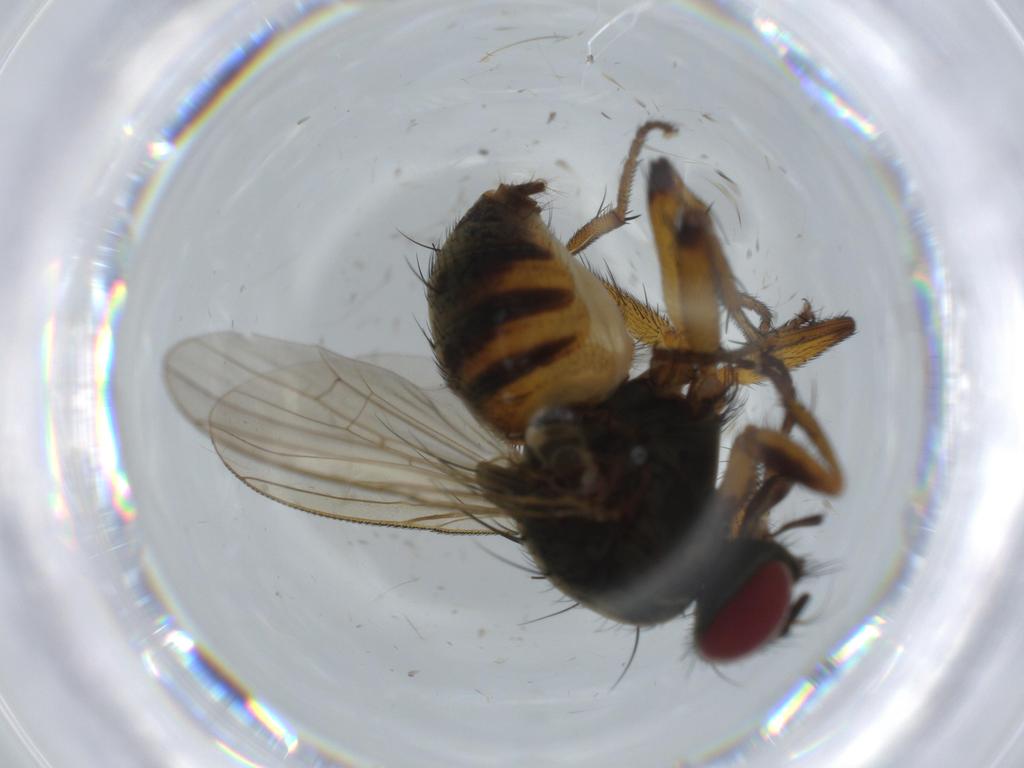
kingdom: Animalia
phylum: Arthropoda
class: Insecta
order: Diptera
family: Muscidae
